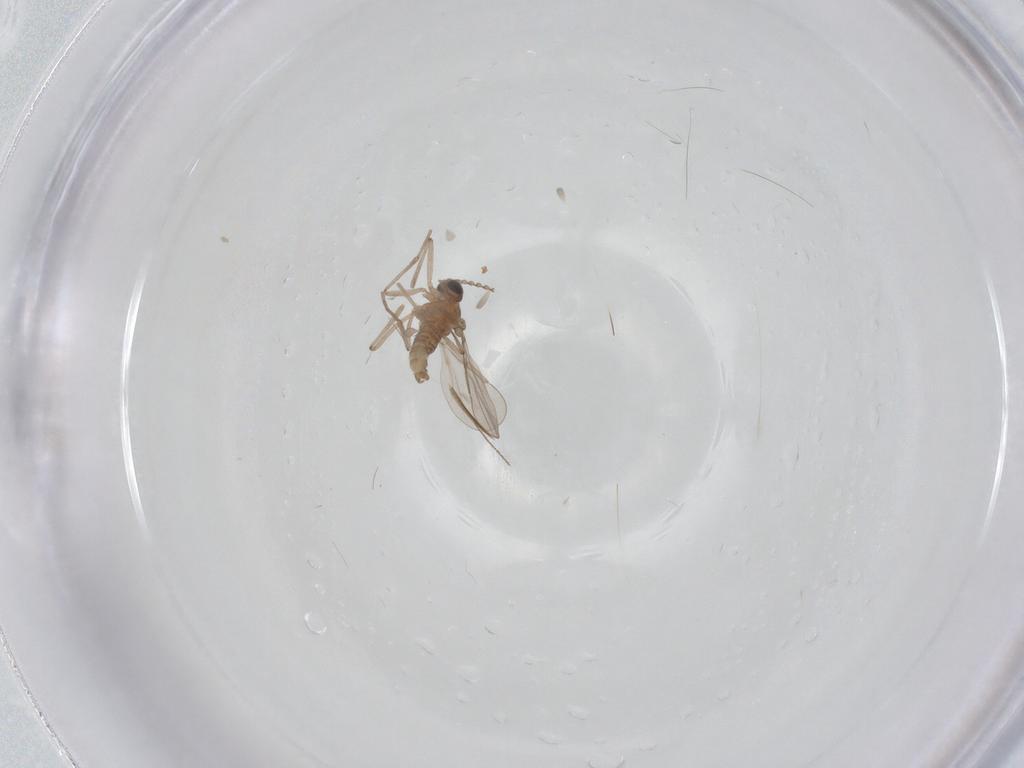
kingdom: Animalia
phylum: Arthropoda
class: Insecta
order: Diptera
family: Cecidomyiidae
